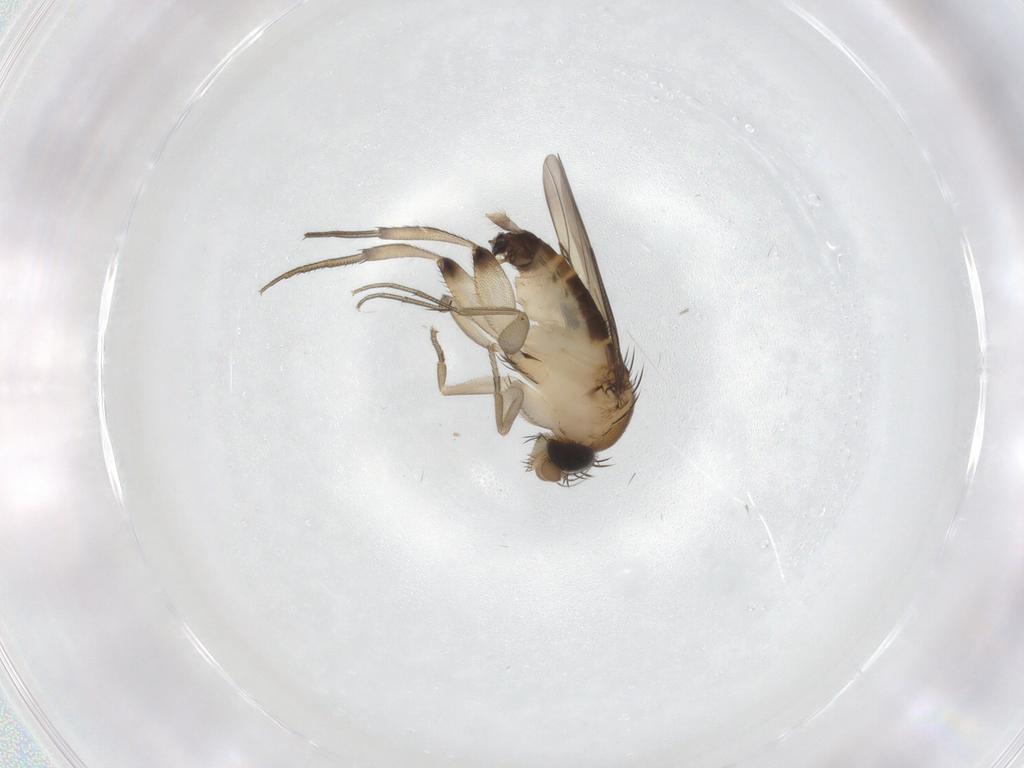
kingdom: Animalia
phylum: Arthropoda
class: Insecta
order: Diptera
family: Phoridae
